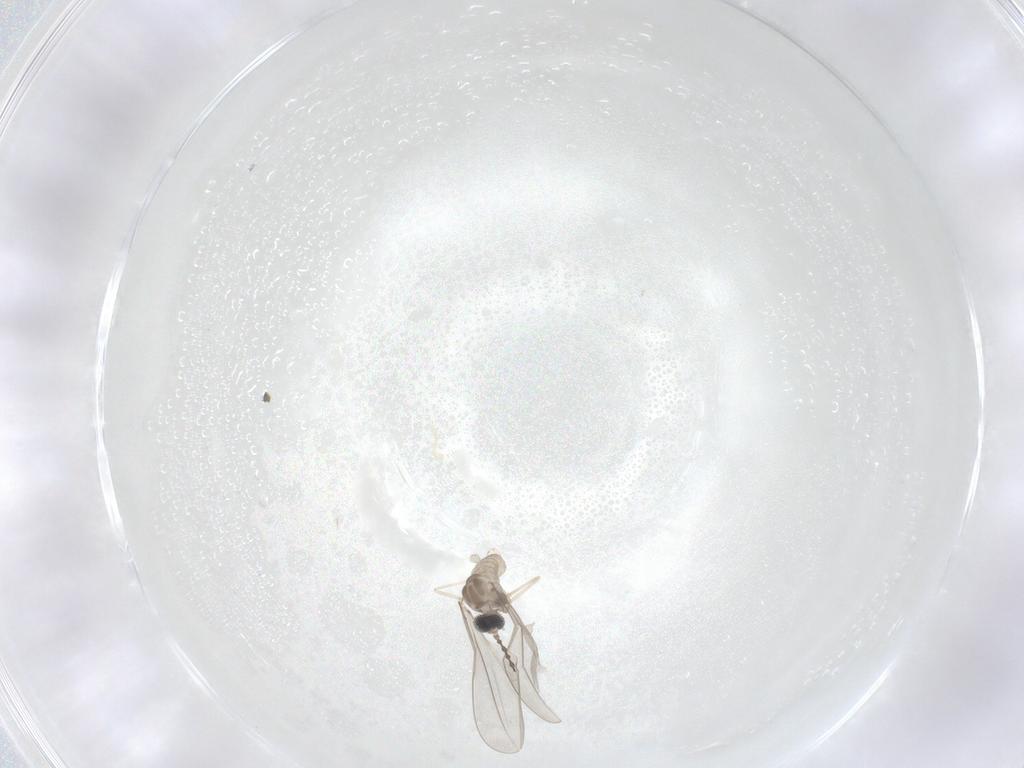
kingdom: Animalia
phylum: Arthropoda
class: Insecta
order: Diptera
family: Cecidomyiidae
